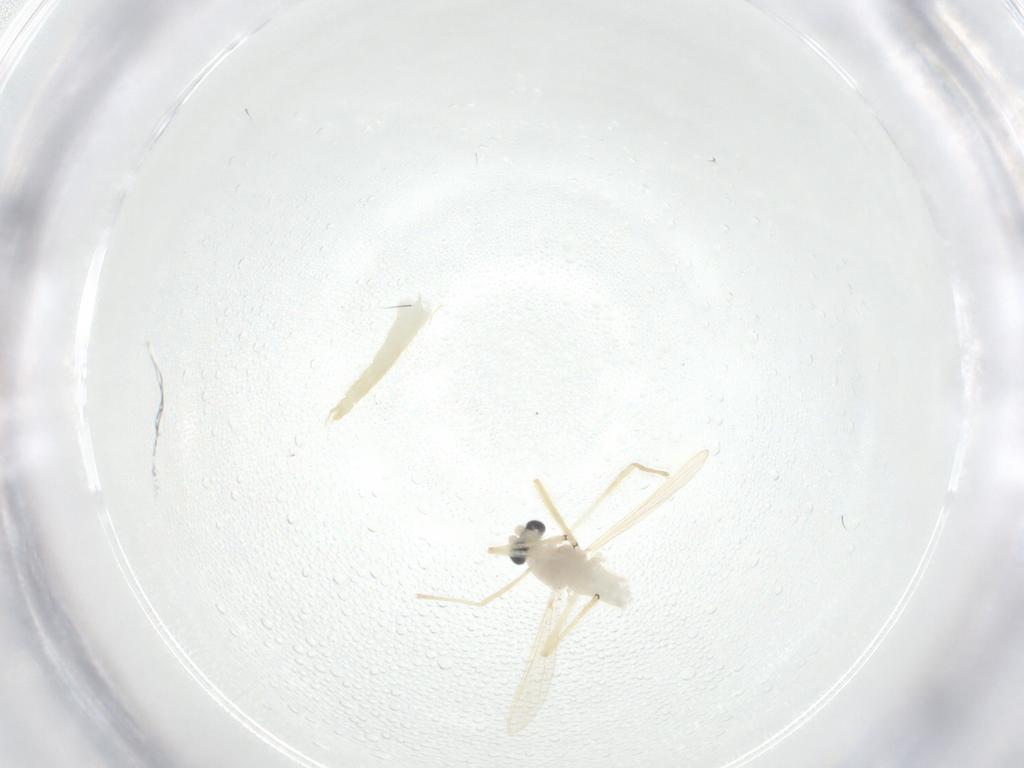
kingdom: Animalia
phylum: Arthropoda
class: Insecta
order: Diptera
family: Chironomidae
